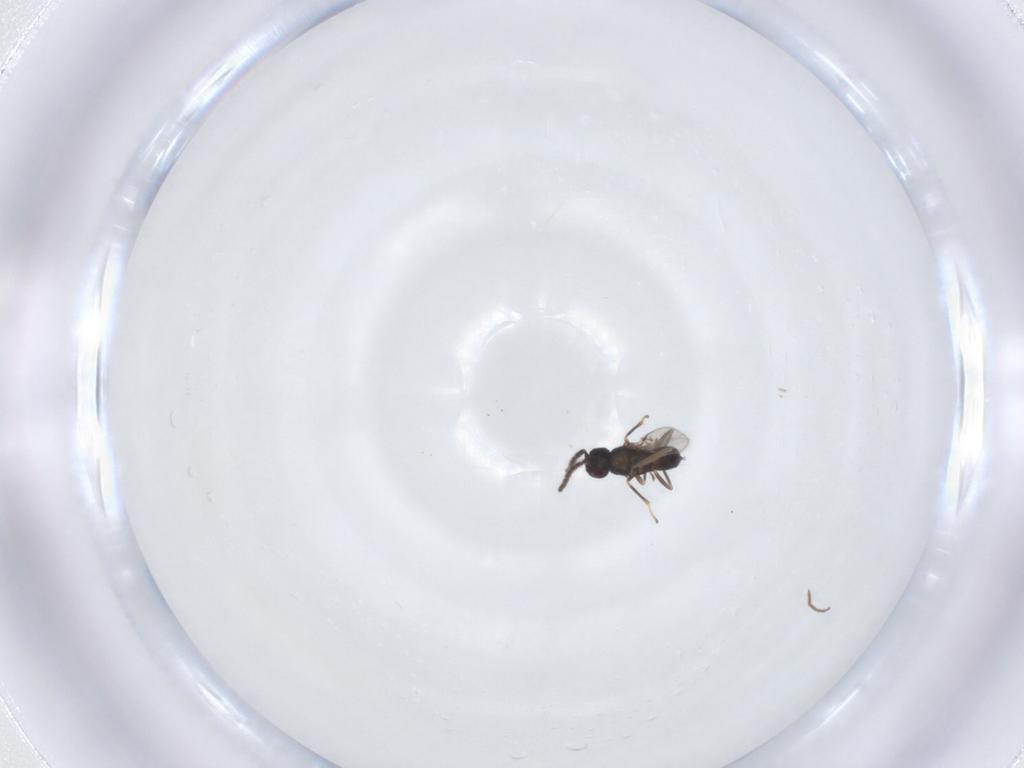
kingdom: Animalia
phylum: Arthropoda
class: Insecta
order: Hymenoptera
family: Encyrtidae
